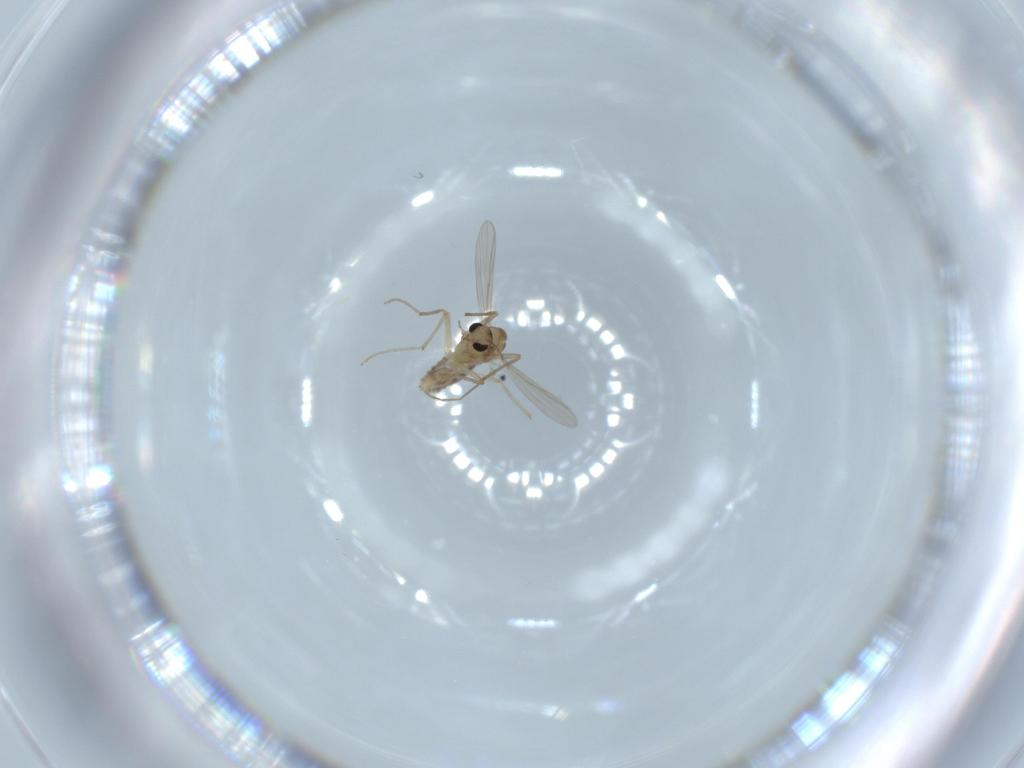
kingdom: Animalia
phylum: Arthropoda
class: Insecta
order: Diptera
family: Chironomidae
